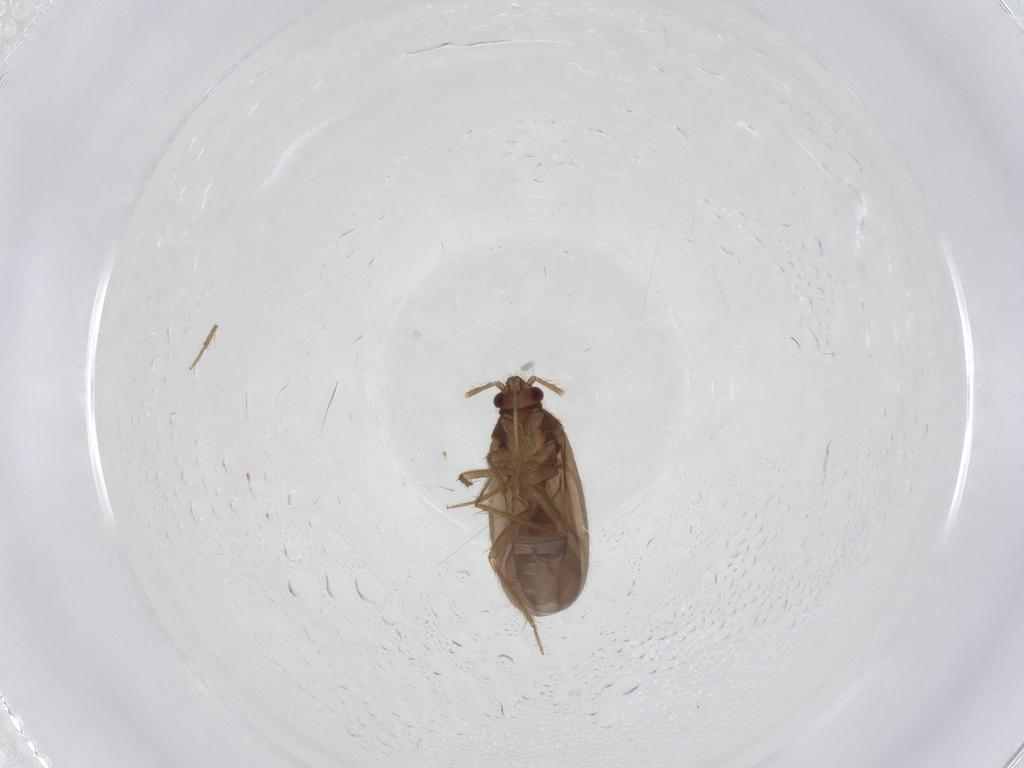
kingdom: Animalia
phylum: Arthropoda
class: Insecta
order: Hemiptera
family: Ceratocombidae
